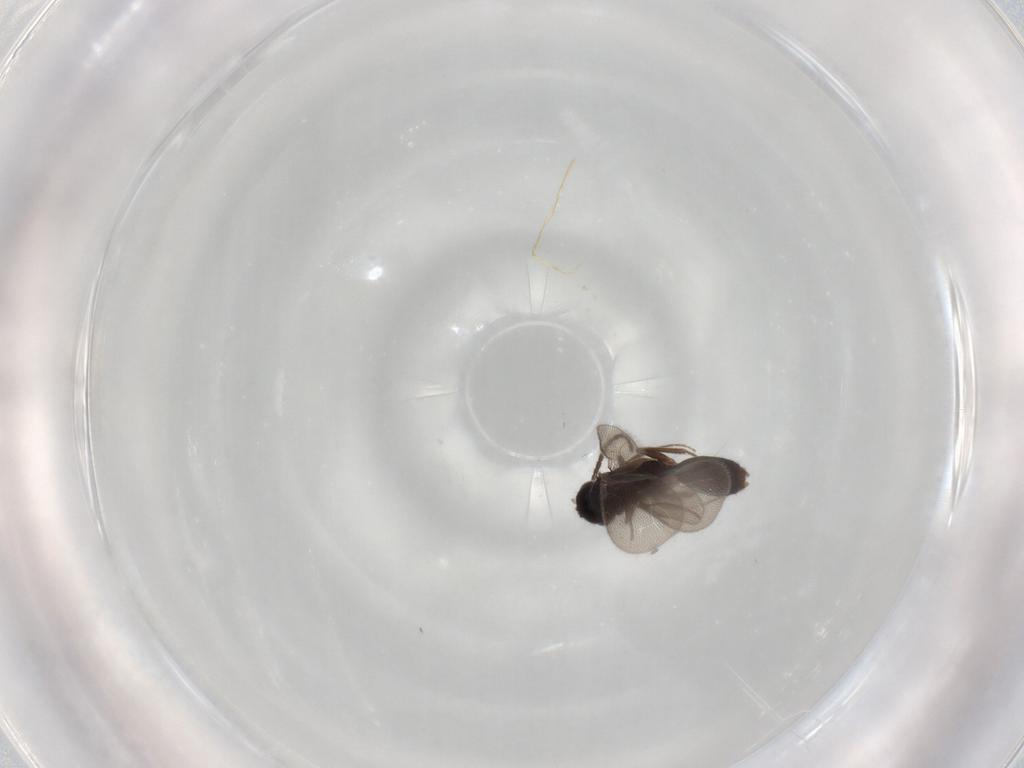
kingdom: Animalia
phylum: Arthropoda
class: Insecta
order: Hymenoptera
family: Bethylidae
